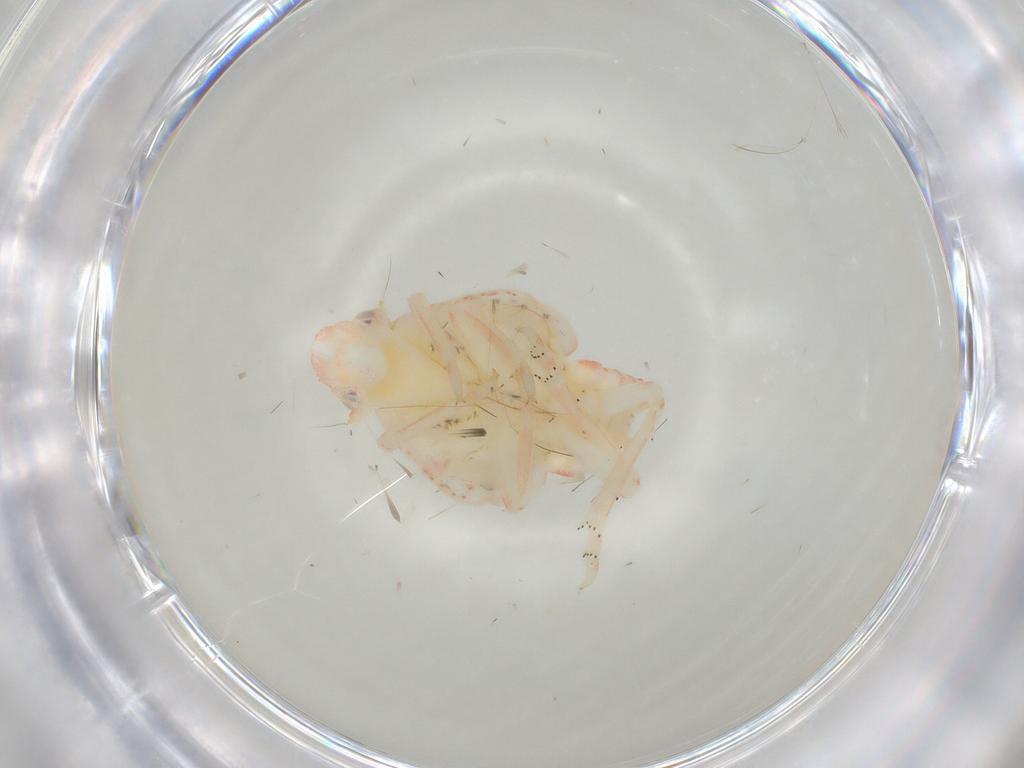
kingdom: Animalia
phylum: Arthropoda
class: Insecta
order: Hemiptera
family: Flatidae
